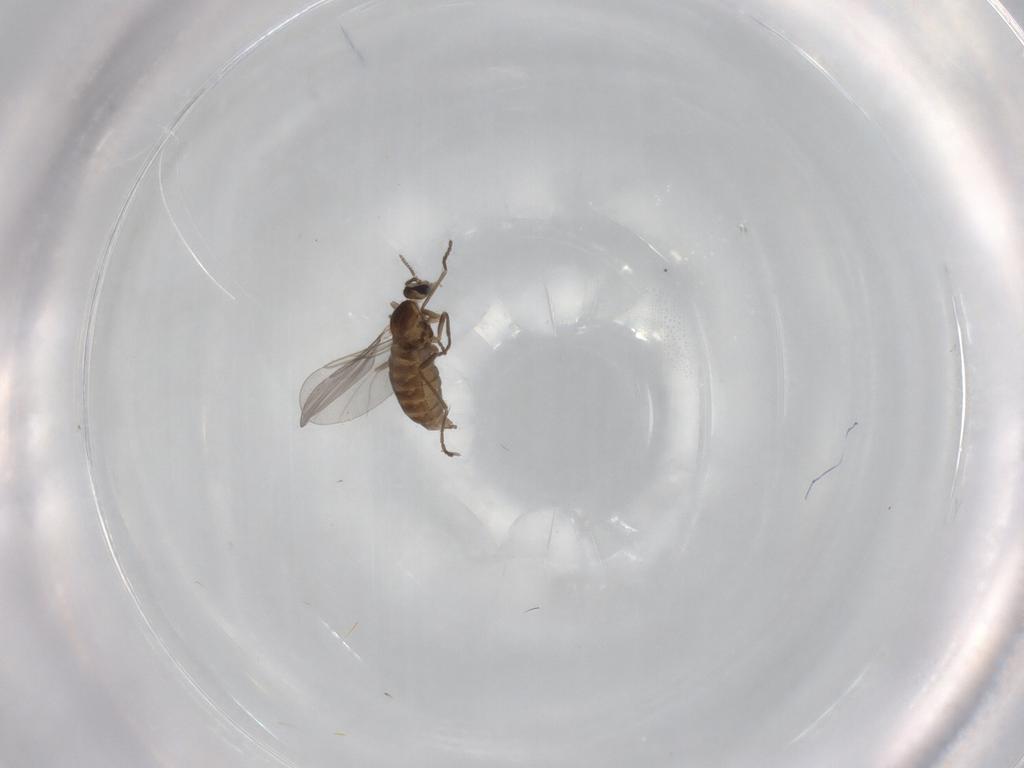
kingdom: Animalia
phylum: Arthropoda
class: Insecta
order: Diptera
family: Cecidomyiidae
